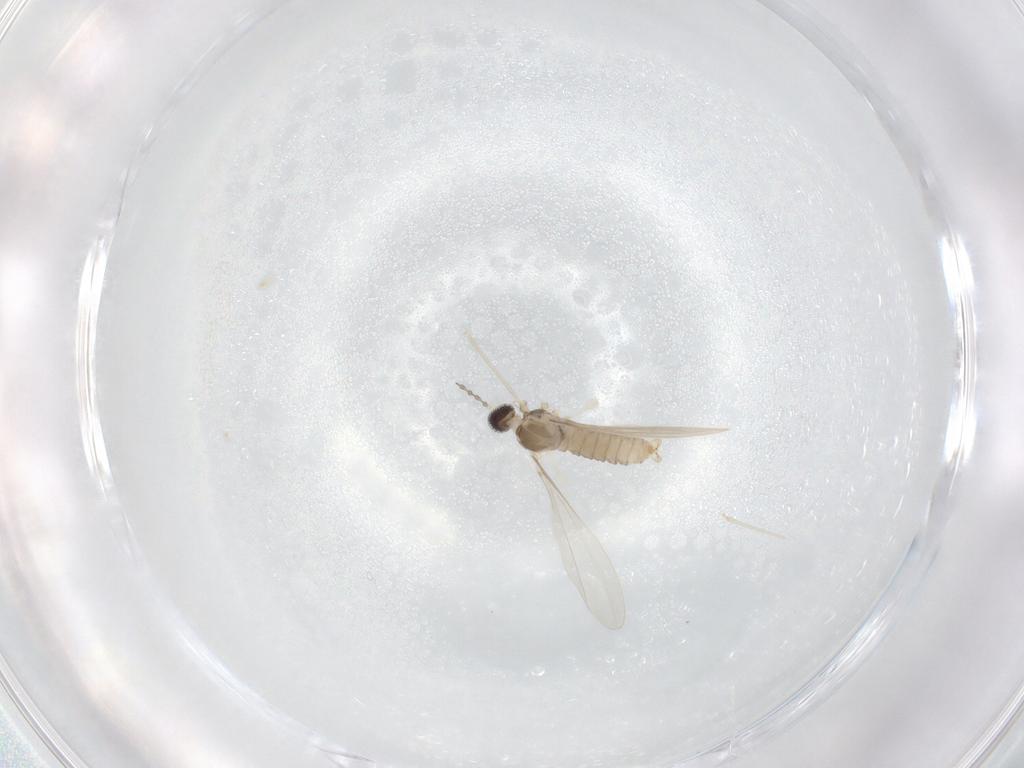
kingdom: Animalia
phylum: Arthropoda
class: Insecta
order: Diptera
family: Cecidomyiidae
